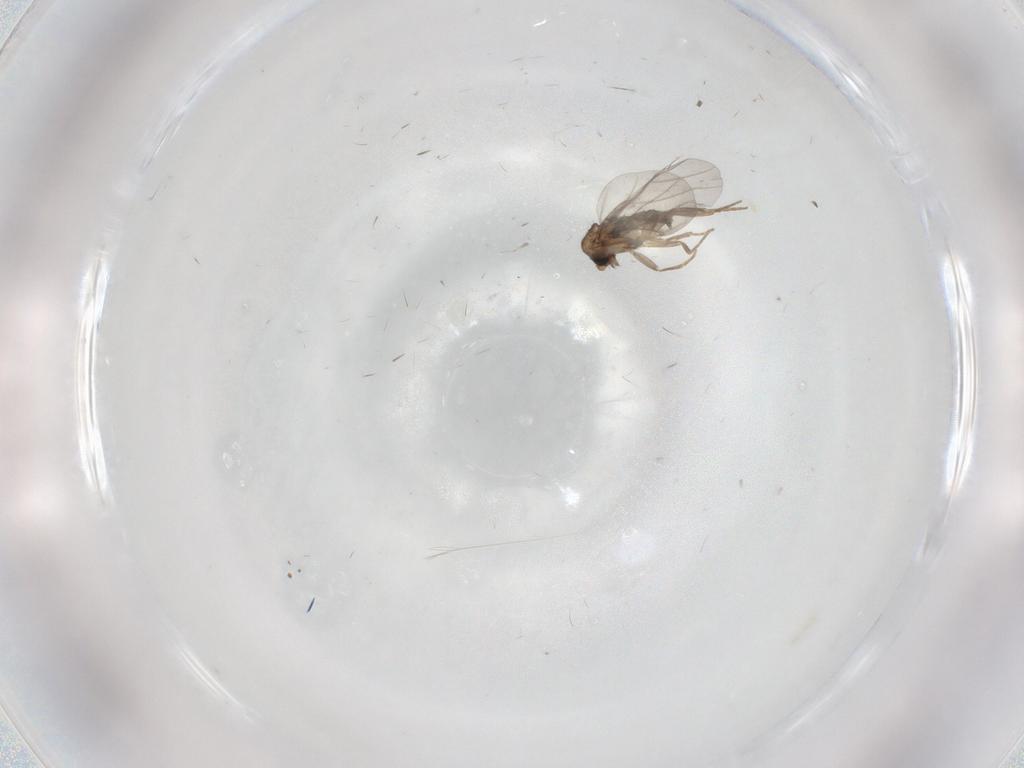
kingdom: Animalia
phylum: Arthropoda
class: Insecta
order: Diptera
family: Limoniidae
